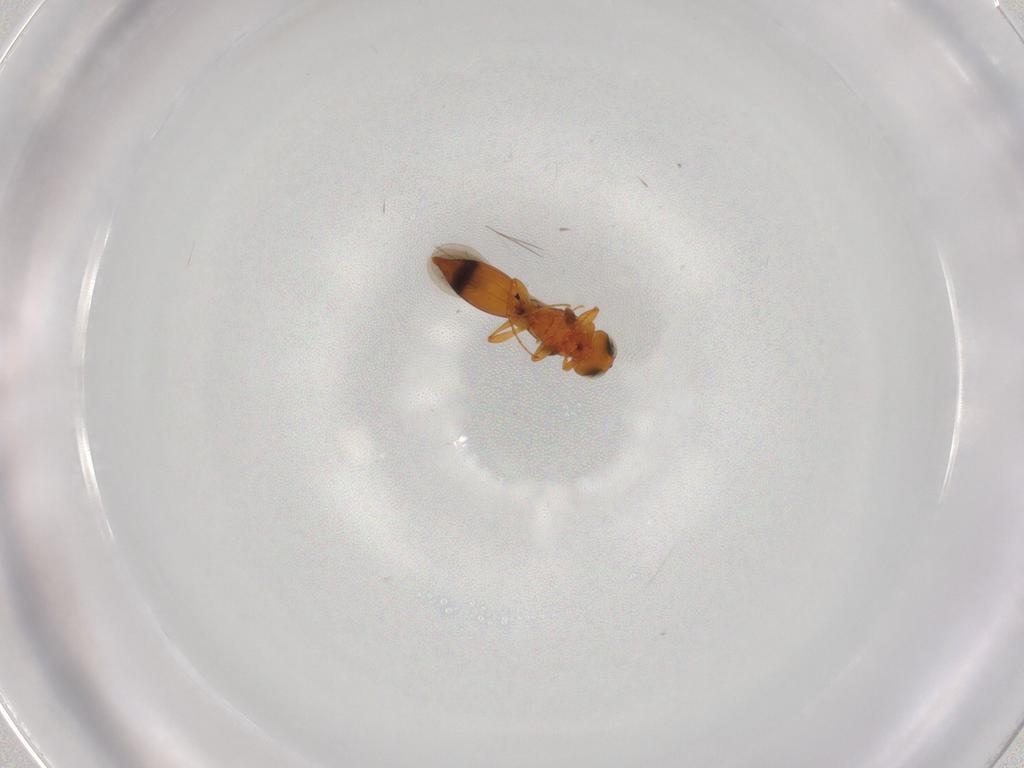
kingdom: Animalia
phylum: Arthropoda
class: Insecta
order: Hymenoptera
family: Platygastridae
